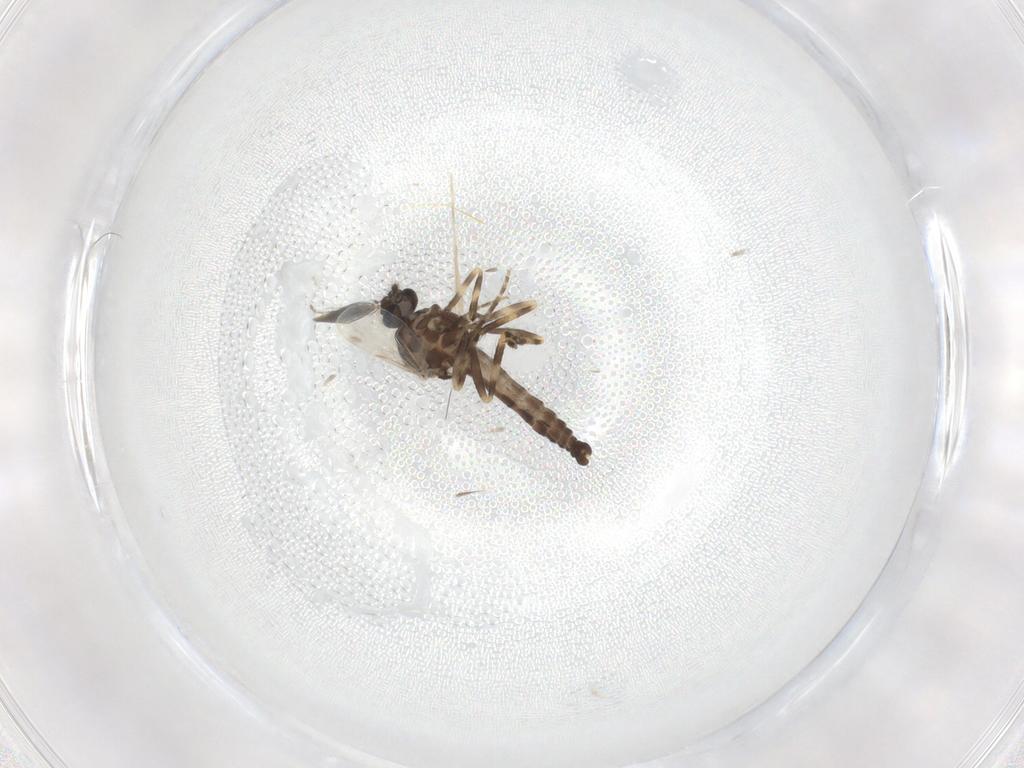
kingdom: Animalia
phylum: Arthropoda
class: Insecta
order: Diptera
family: Ceratopogonidae
